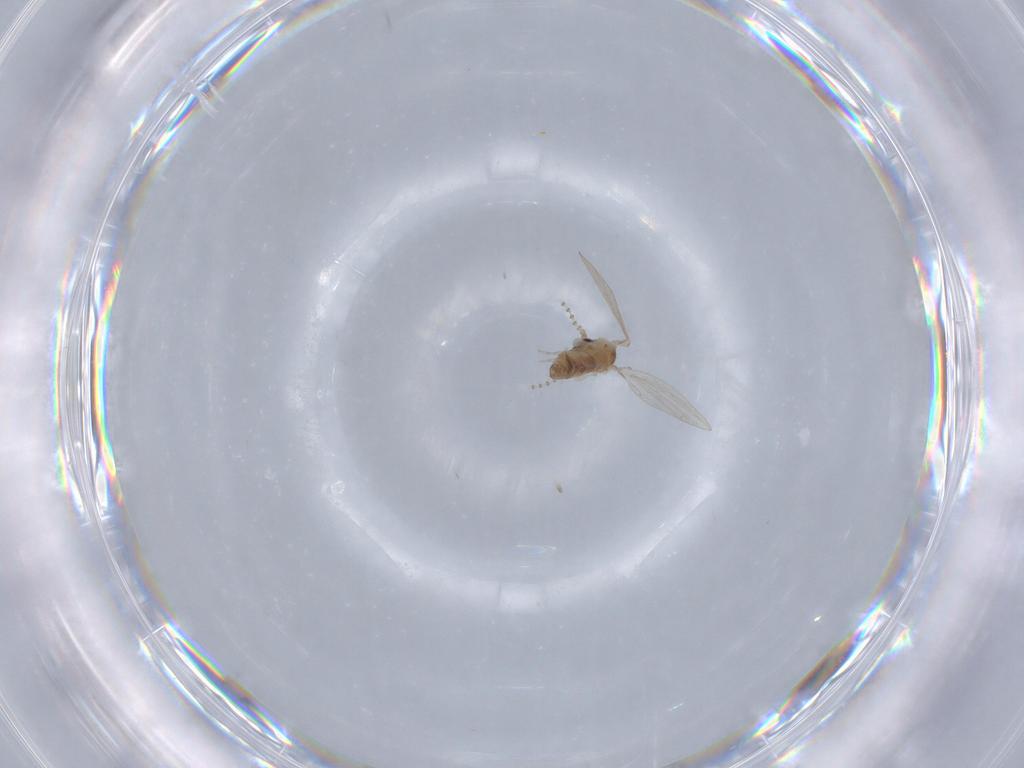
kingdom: Animalia
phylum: Arthropoda
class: Insecta
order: Diptera
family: Psychodidae
